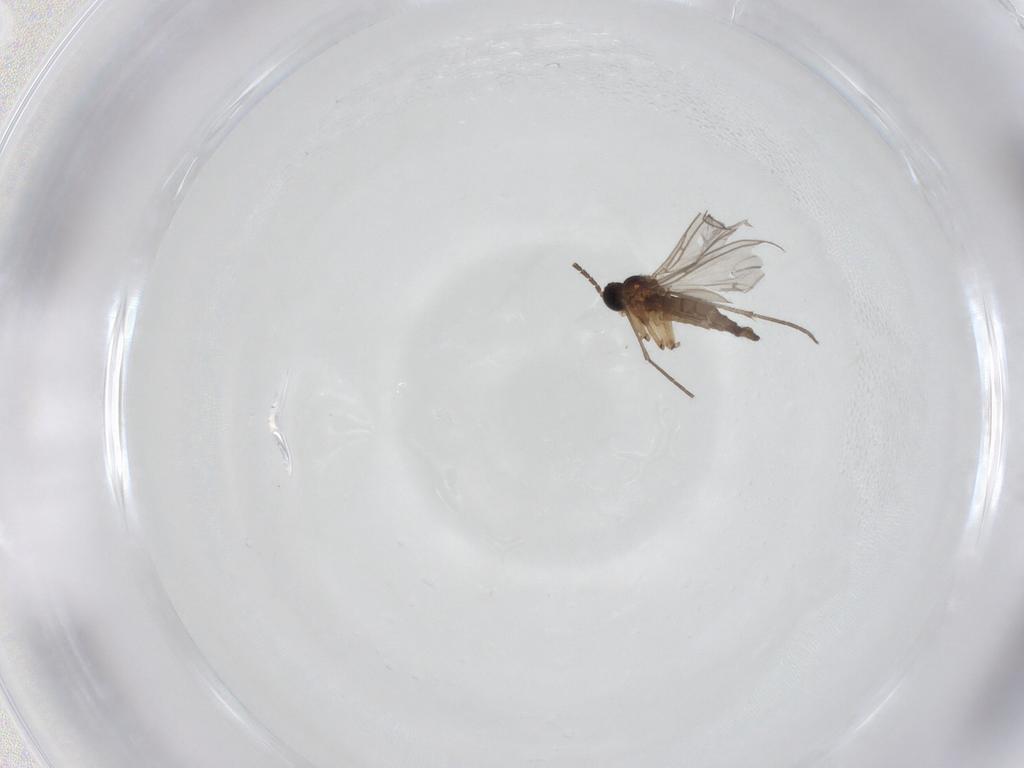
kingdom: Animalia
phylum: Arthropoda
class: Insecta
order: Diptera
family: Sciaridae
